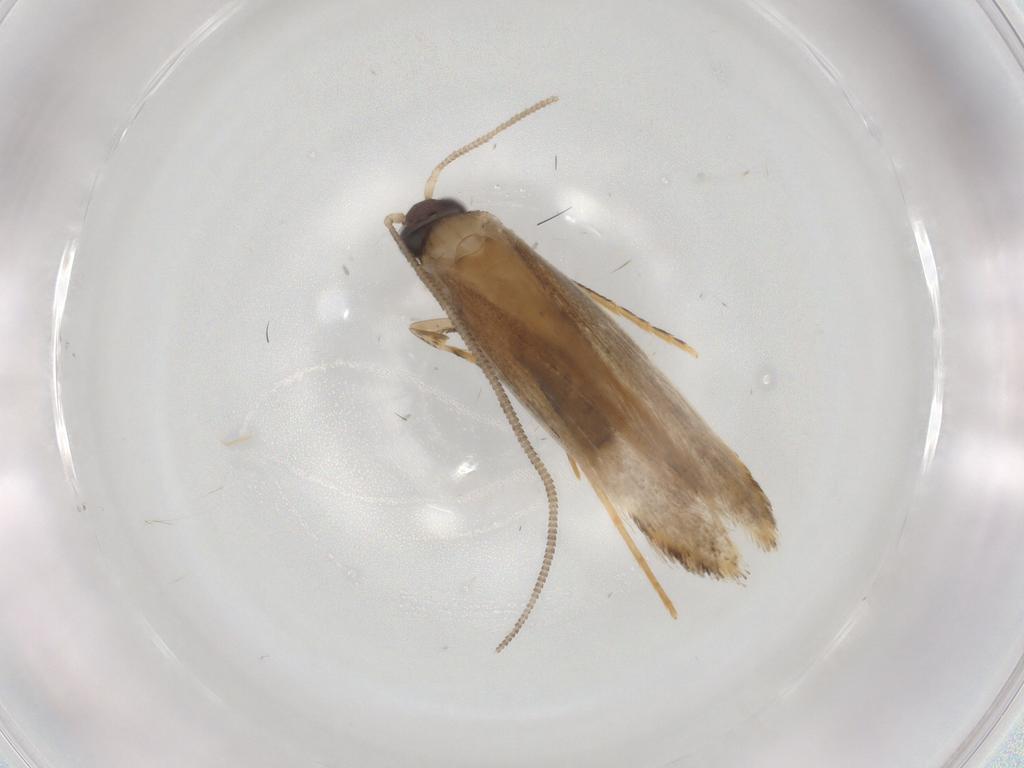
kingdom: Animalia
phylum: Arthropoda
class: Insecta
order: Lepidoptera
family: Tineidae
